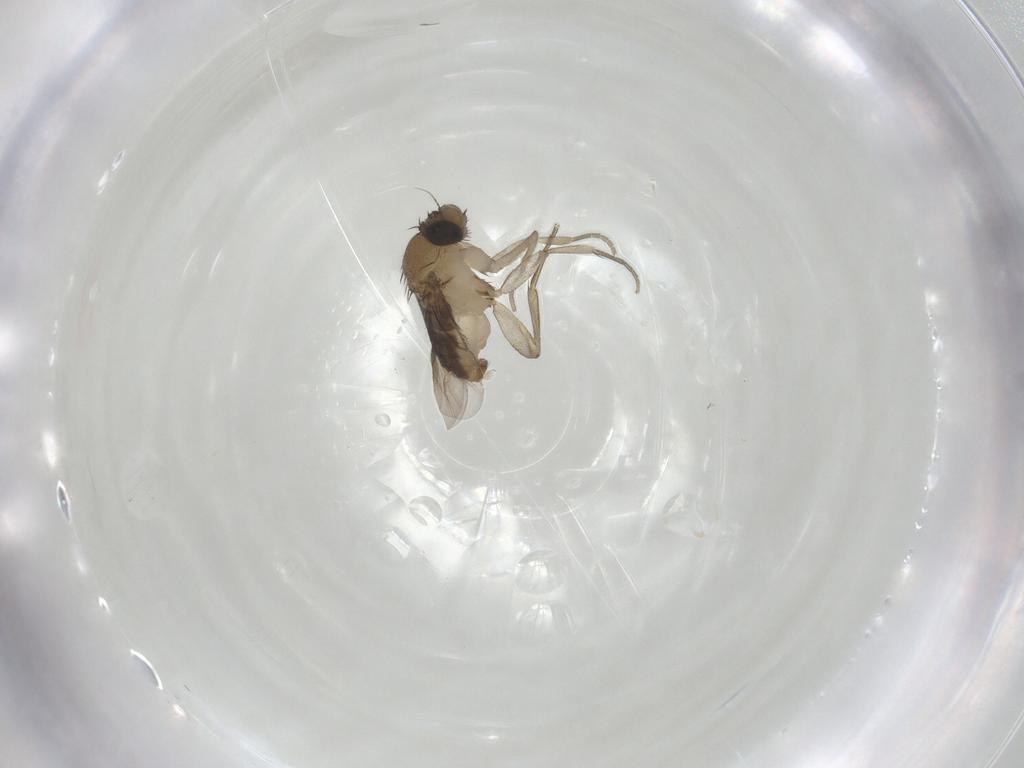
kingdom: Animalia
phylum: Arthropoda
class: Insecta
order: Diptera
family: Phoridae
